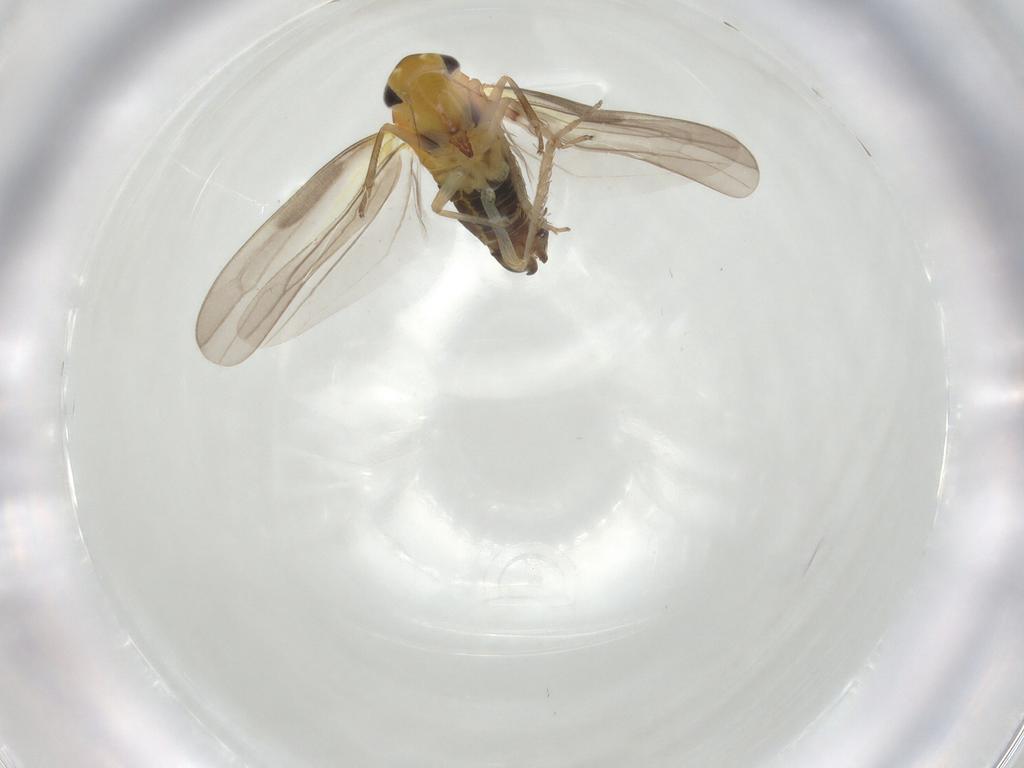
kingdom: Animalia
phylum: Arthropoda
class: Insecta
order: Hemiptera
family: Cicadellidae
